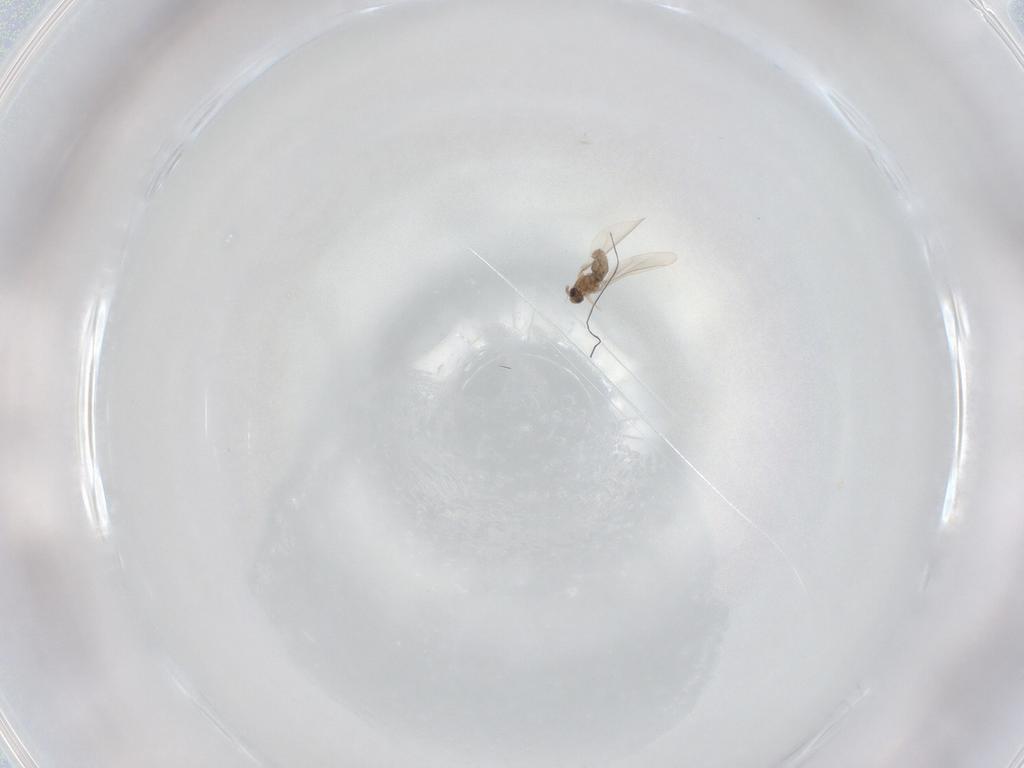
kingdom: Animalia
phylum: Arthropoda
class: Insecta
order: Diptera
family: Cecidomyiidae
